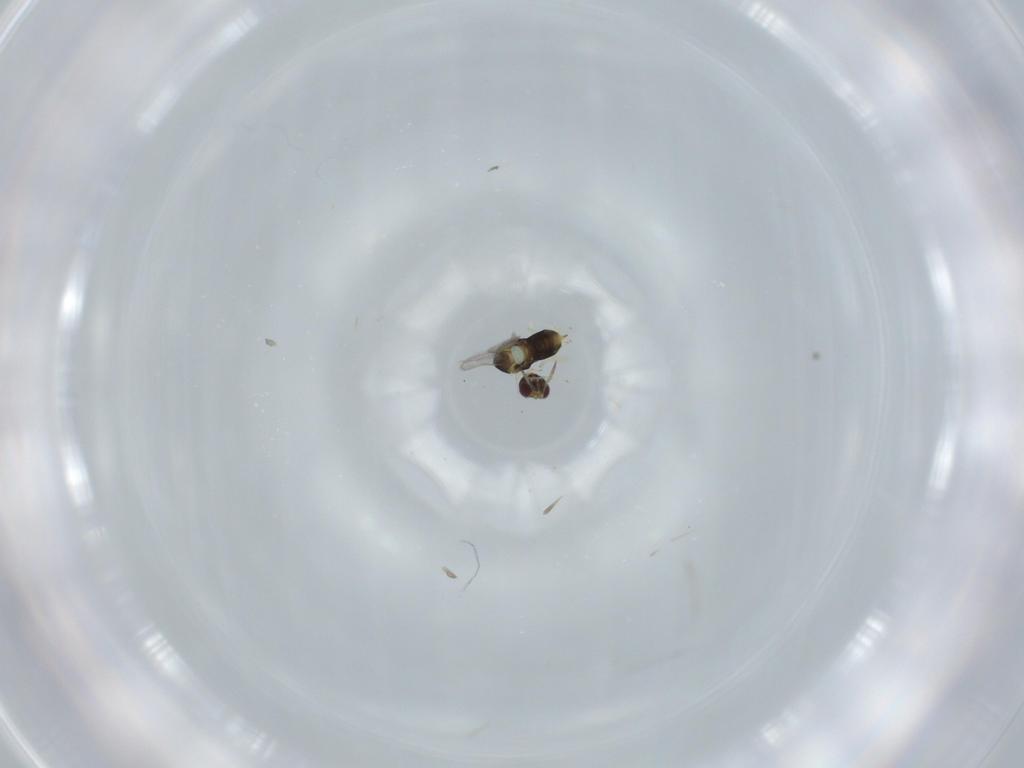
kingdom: Animalia
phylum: Arthropoda
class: Insecta
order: Hymenoptera
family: Aphelinidae
